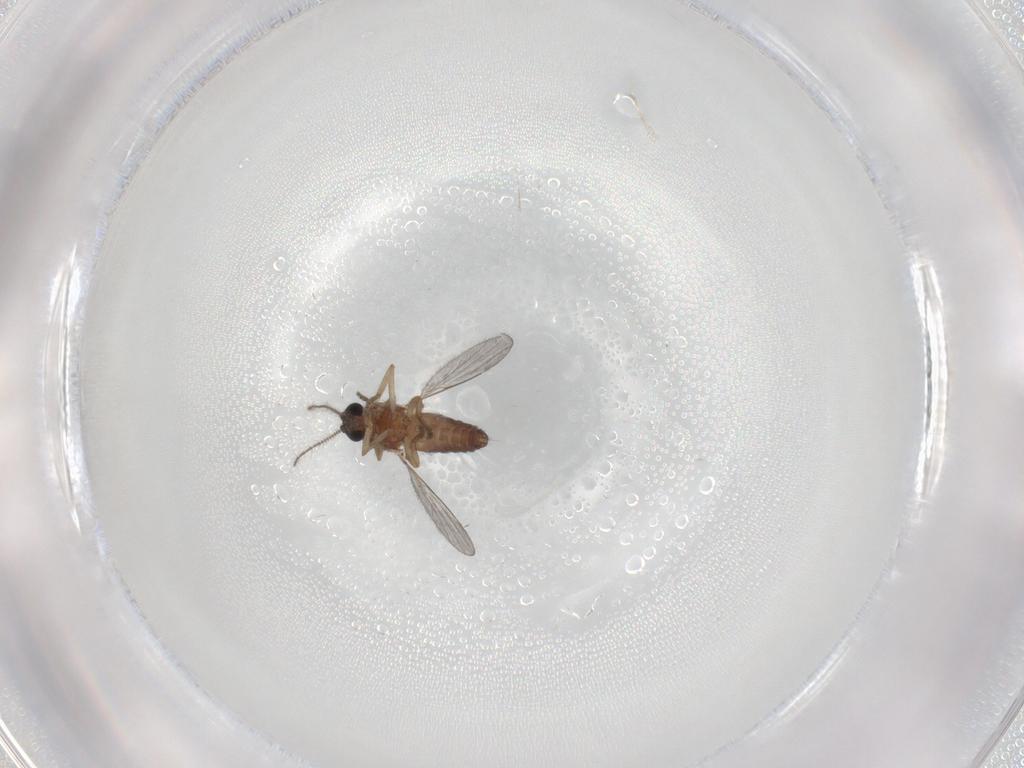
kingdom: Animalia
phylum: Arthropoda
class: Insecta
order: Diptera
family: Ceratopogonidae
